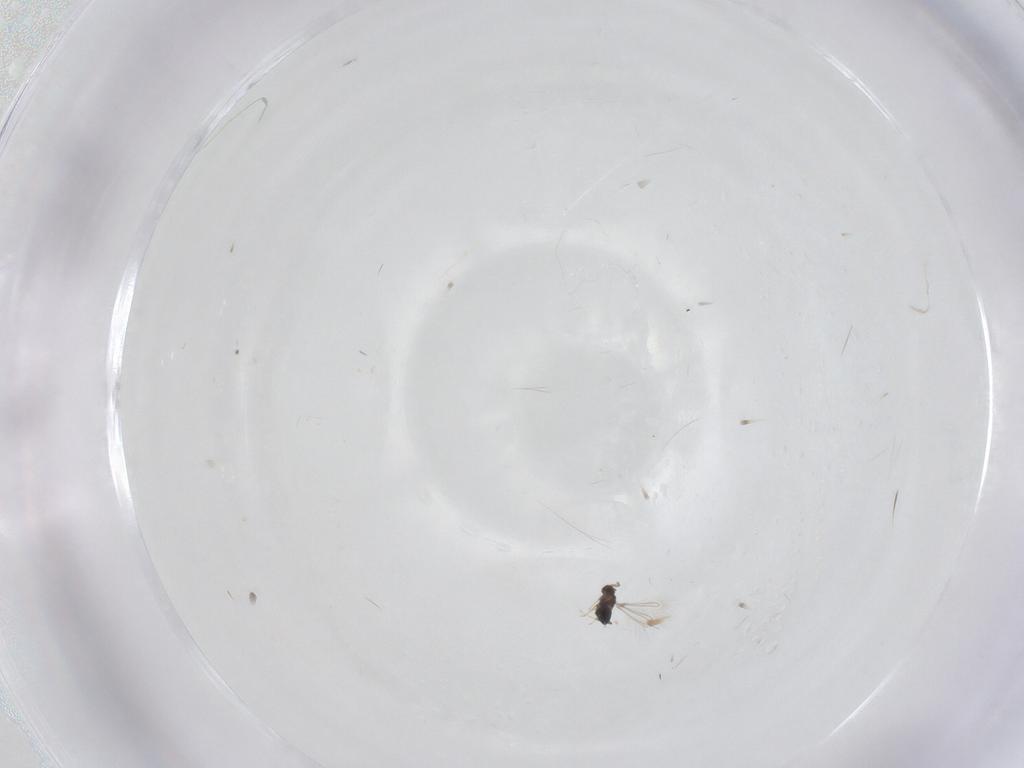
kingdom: Animalia
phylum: Arthropoda
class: Insecta
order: Hymenoptera
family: Mymaridae
